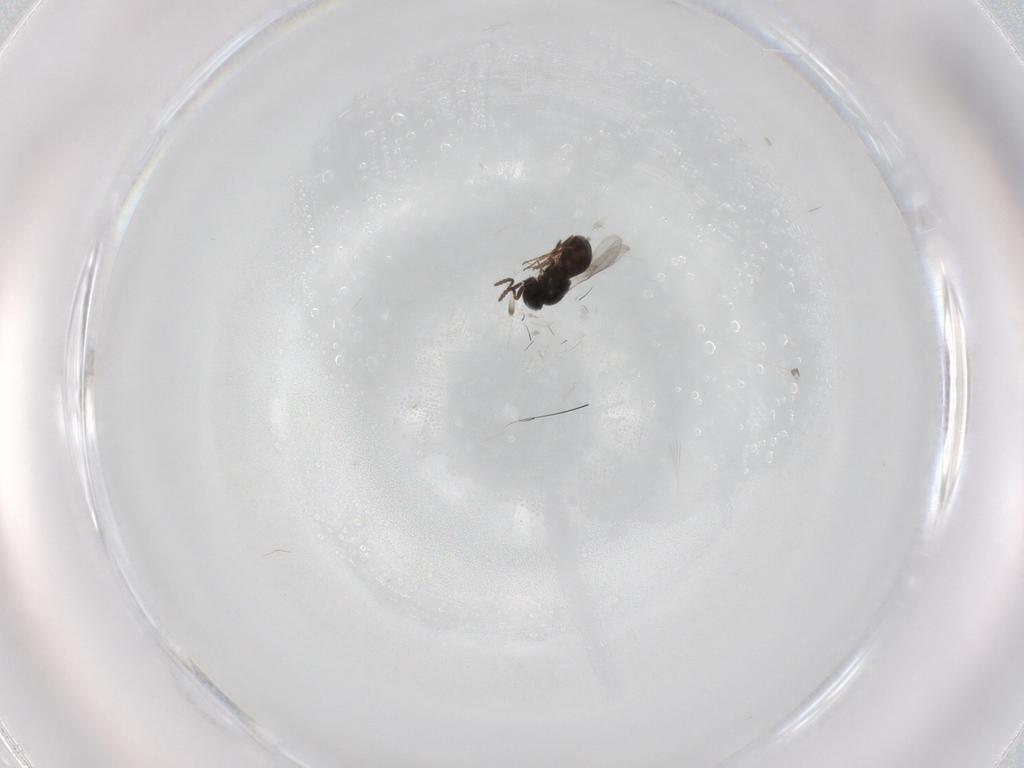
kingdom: Animalia
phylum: Arthropoda
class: Insecta
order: Hymenoptera
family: Scelionidae
